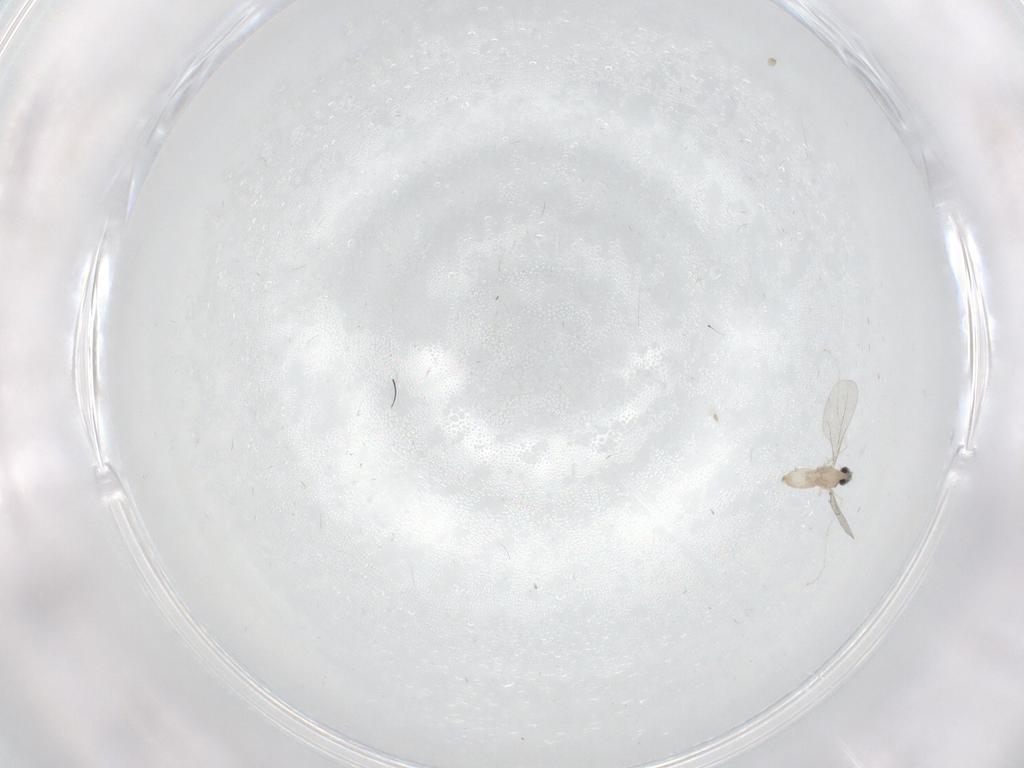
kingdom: Animalia
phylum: Arthropoda
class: Insecta
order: Diptera
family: Cecidomyiidae
